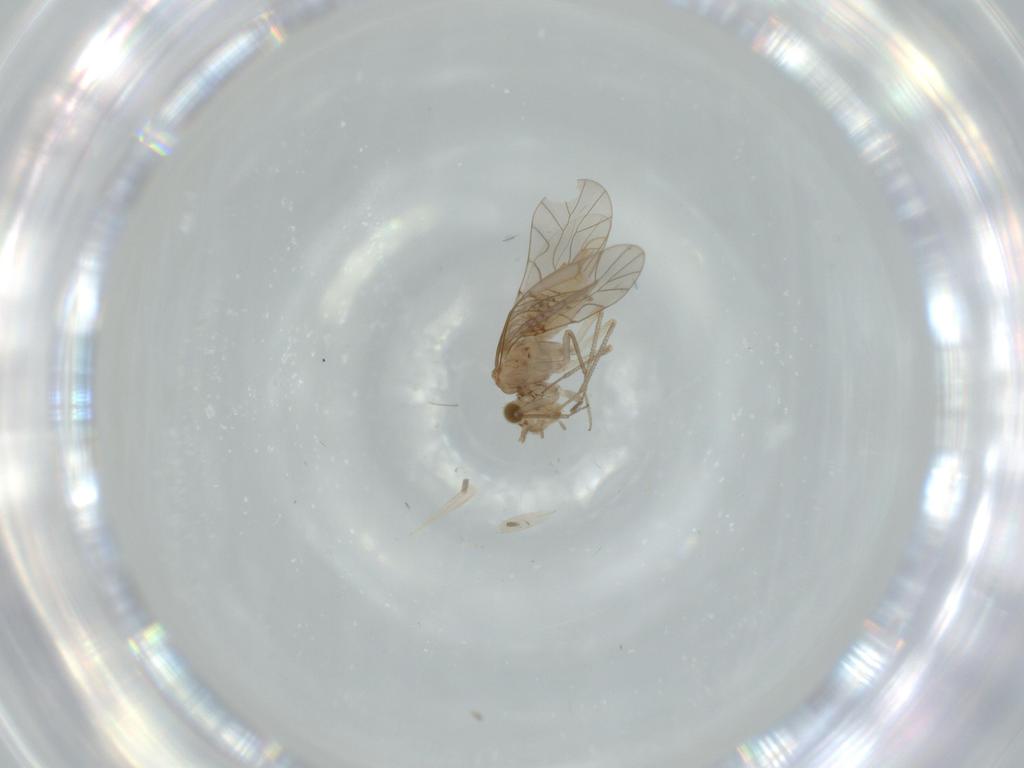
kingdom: Animalia
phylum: Arthropoda
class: Insecta
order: Psocodea
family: Lachesillidae
